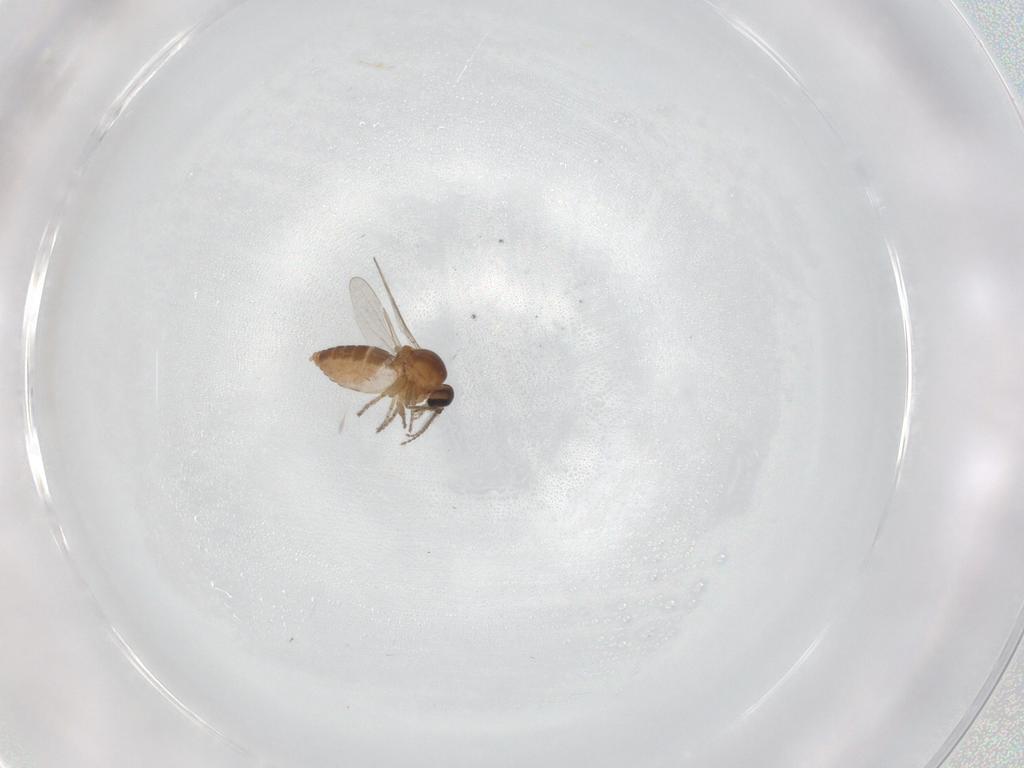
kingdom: Animalia
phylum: Arthropoda
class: Insecta
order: Diptera
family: Ceratopogonidae
